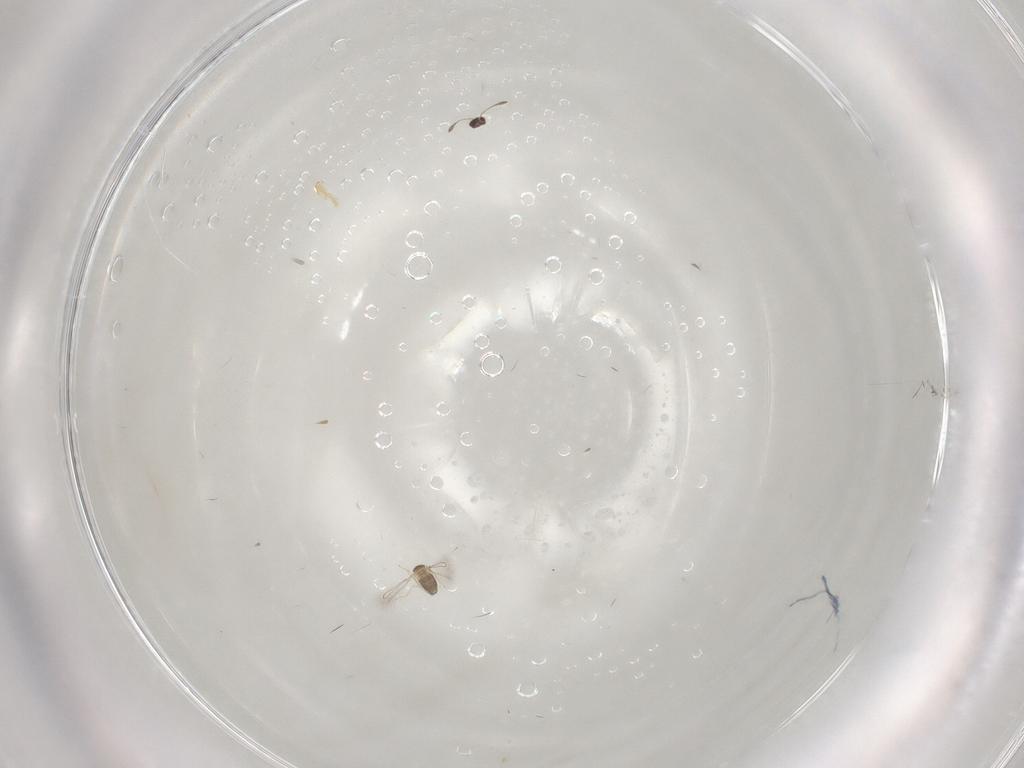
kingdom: Animalia
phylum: Arthropoda
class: Insecta
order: Hymenoptera
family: Mymaridae
